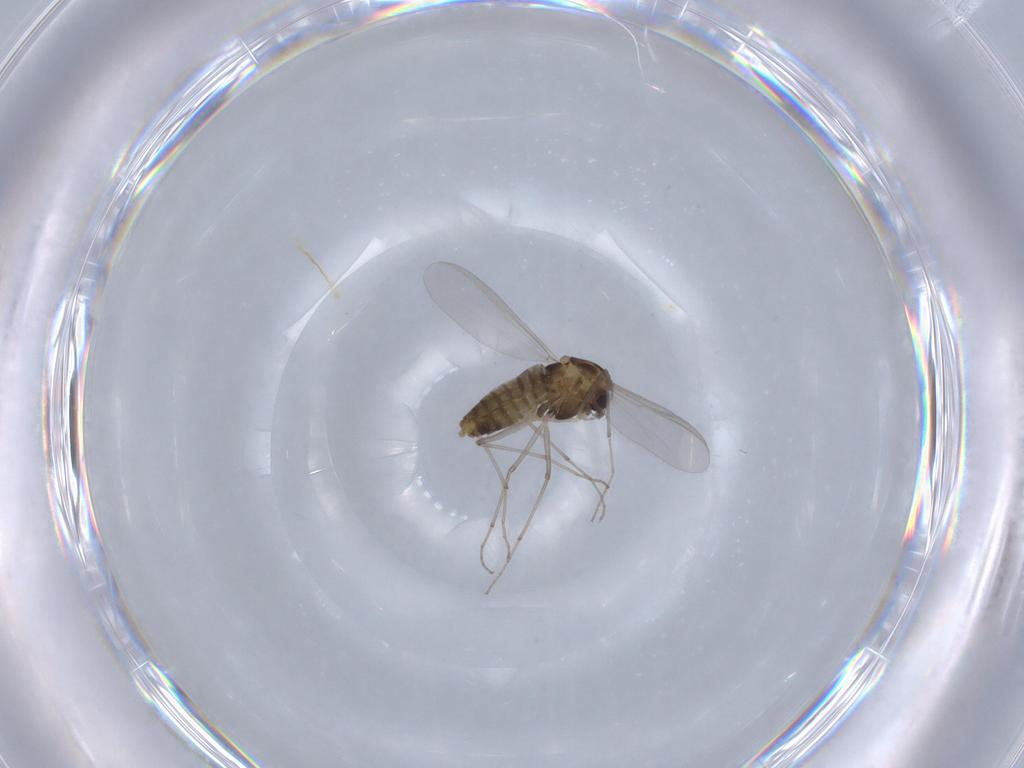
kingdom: Animalia
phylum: Arthropoda
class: Insecta
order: Diptera
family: Chironomidae
